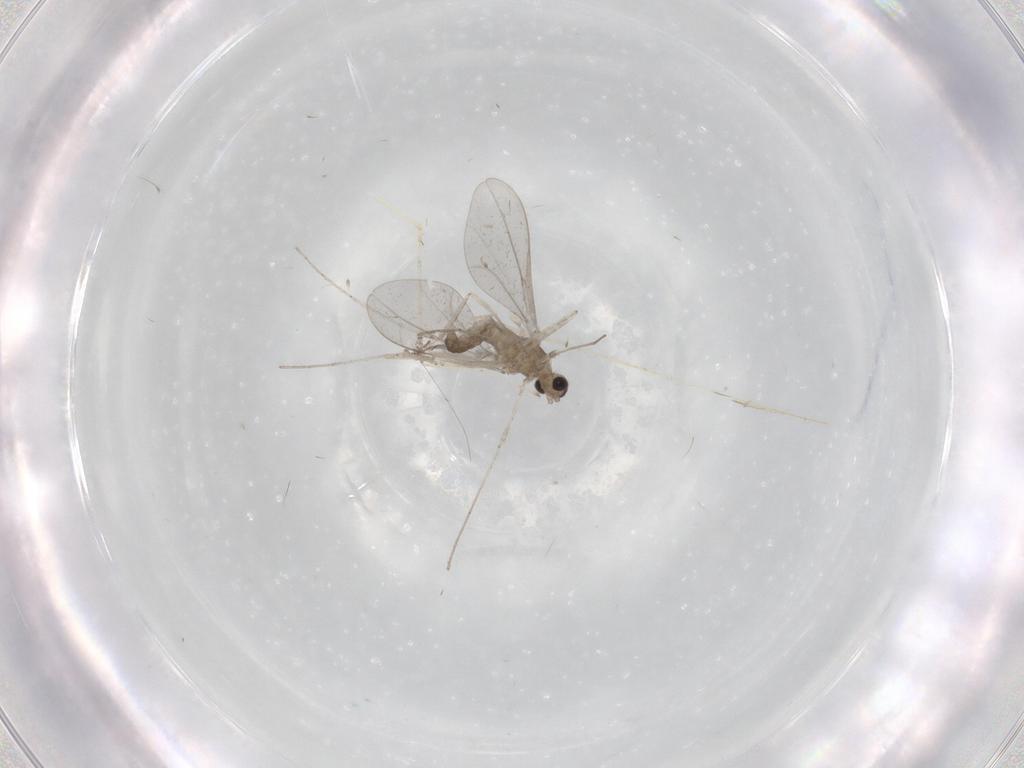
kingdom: Animalia
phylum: Arthropoda
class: Insecta
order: Diptera
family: Cecidomyiidae
